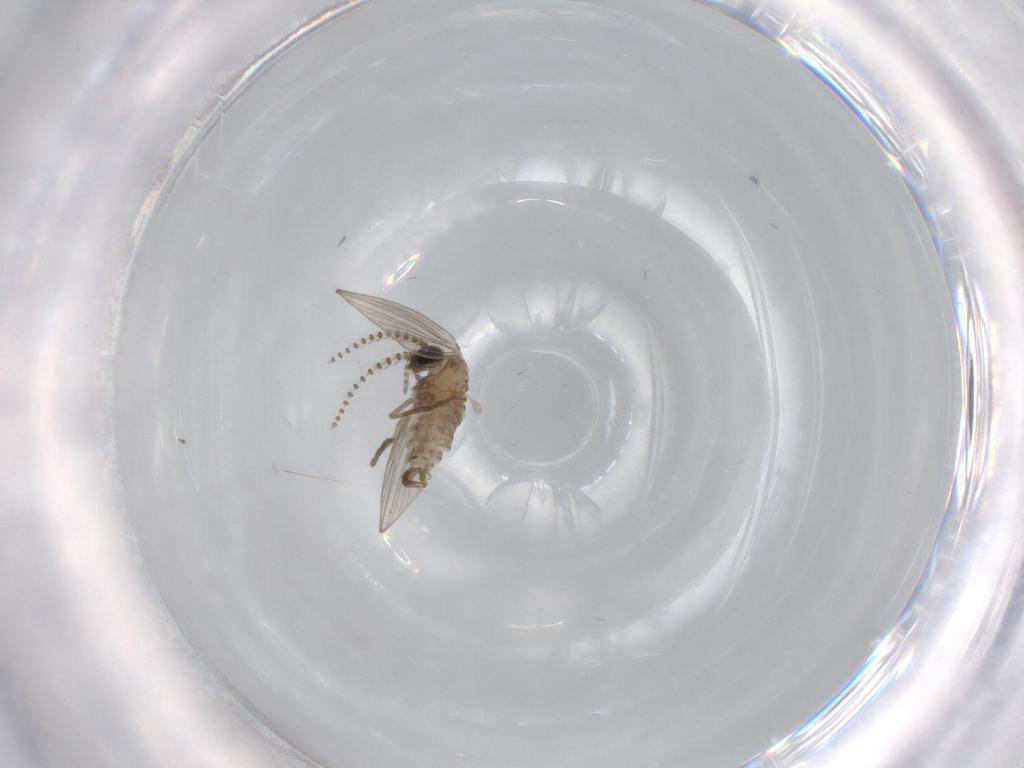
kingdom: Animalia
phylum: Arthropoda
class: Insecta
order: Diptera
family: Psychodidae
